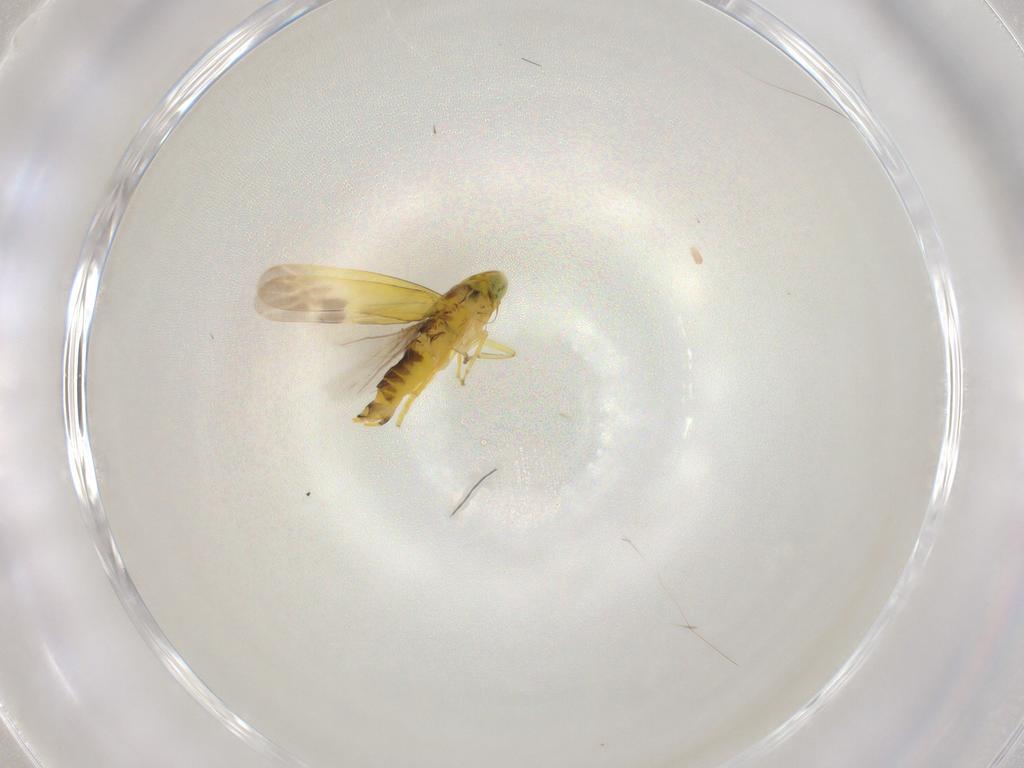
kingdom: Animalia
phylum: Arthropoda
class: Insecta
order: Hemiptera
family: Cicadellidae
